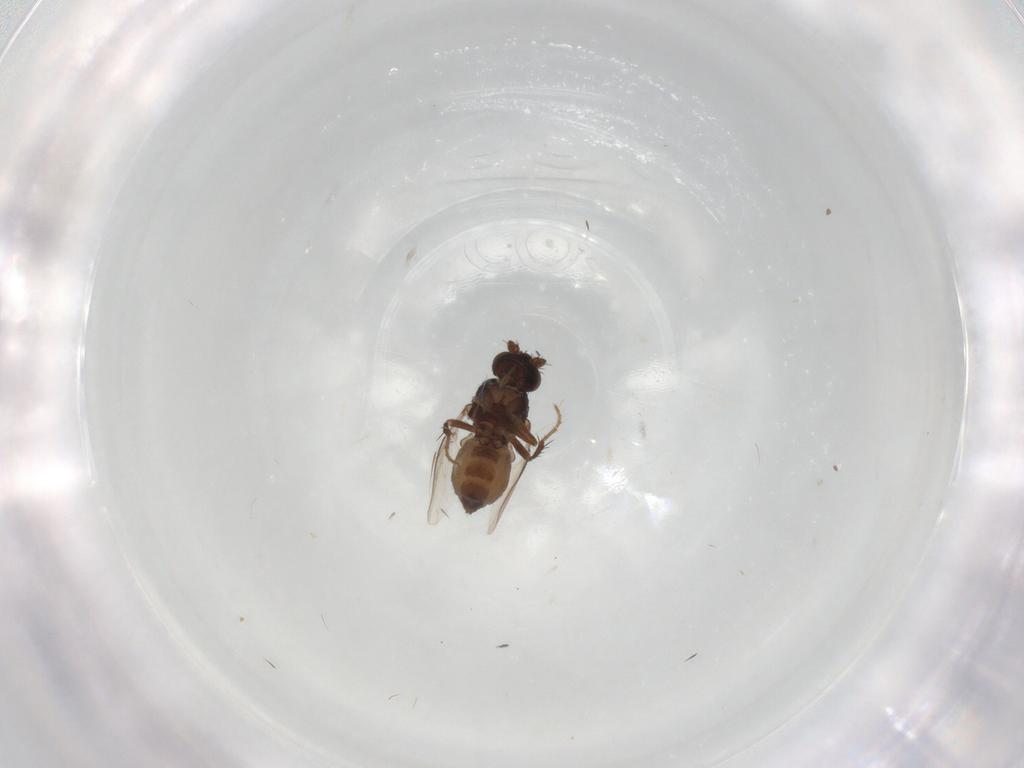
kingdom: Animalia
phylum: Arthropoda
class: Insecta
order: Diptera
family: Sphaeroceridae
